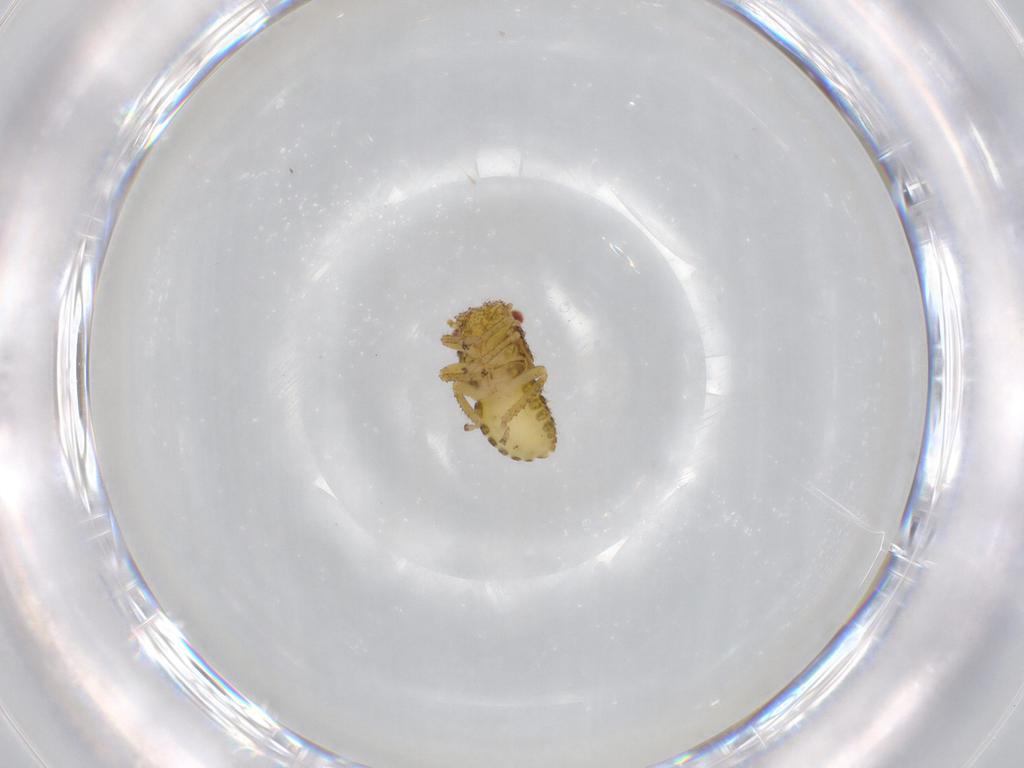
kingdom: Animalia
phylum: Arthropoda
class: Insecta
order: Hemiptera
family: Cicadellidae
